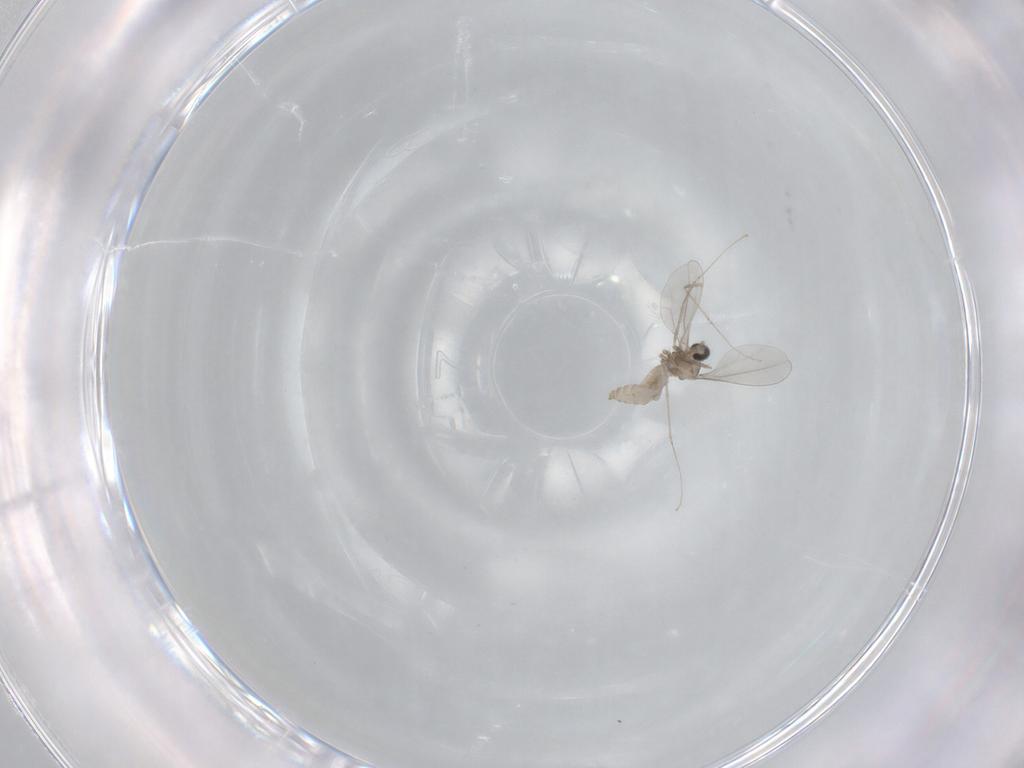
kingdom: Animalia
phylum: Arthropoda
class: Insecta
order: Diptera
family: Cecidomyiidae
